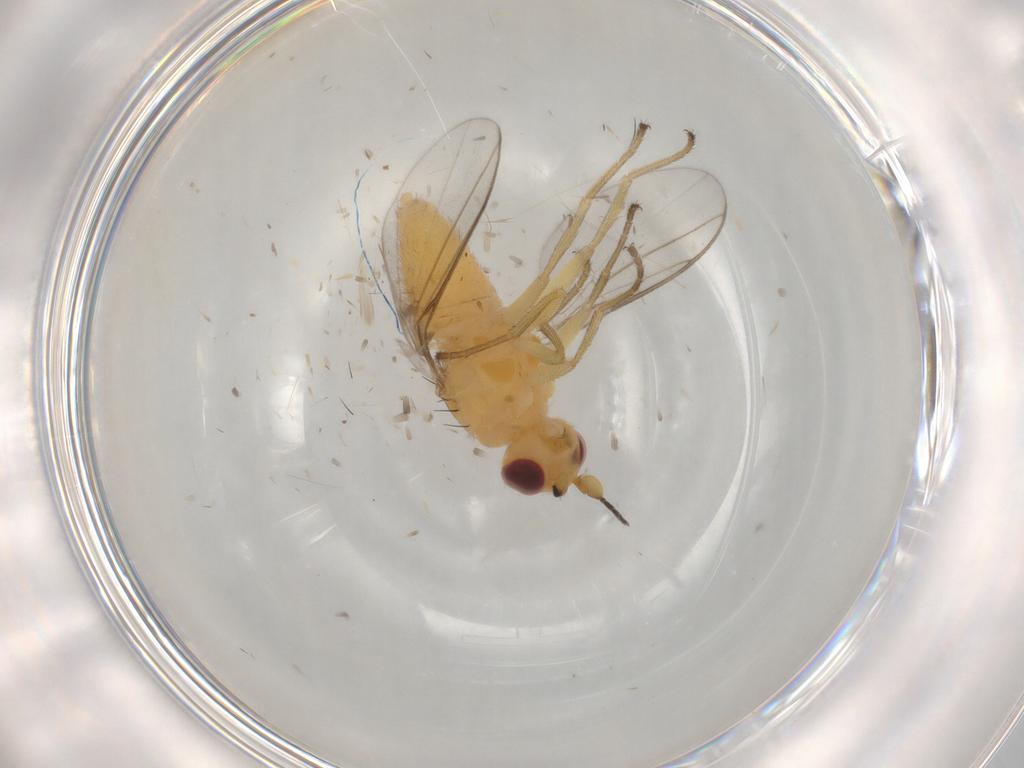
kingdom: Animalia
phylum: Arthropoda
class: Insecta
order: Diptera
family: Chloropidae
